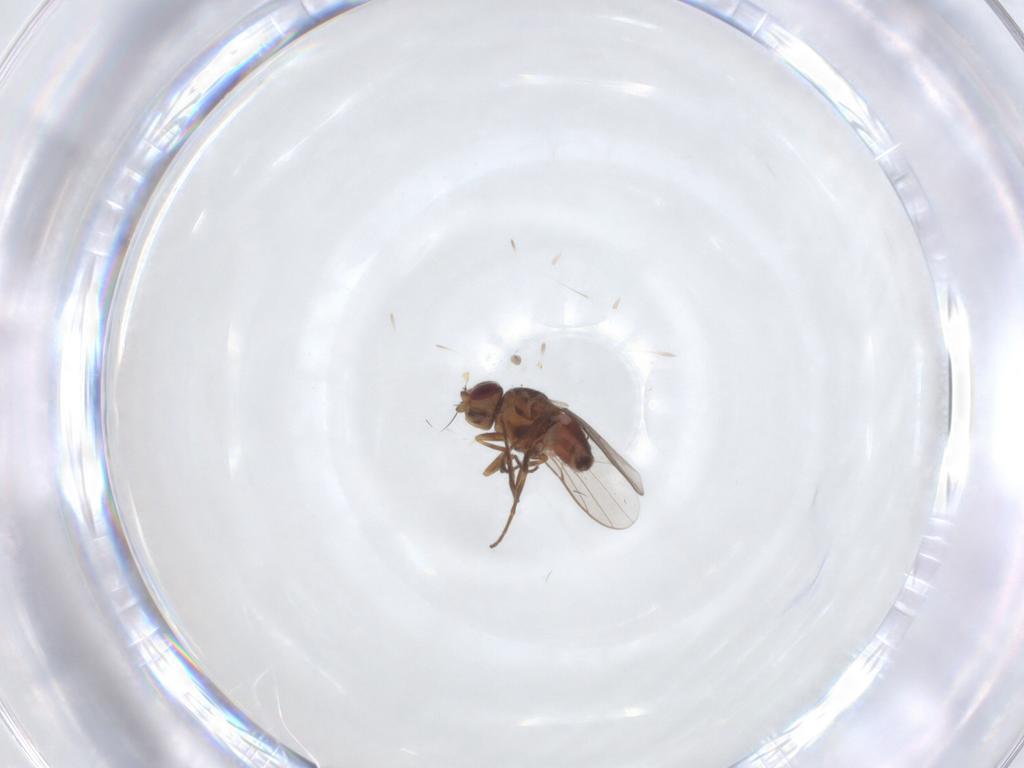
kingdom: Animalia
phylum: Arthropoda
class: Insecta
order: Diptera
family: Chloropidae
